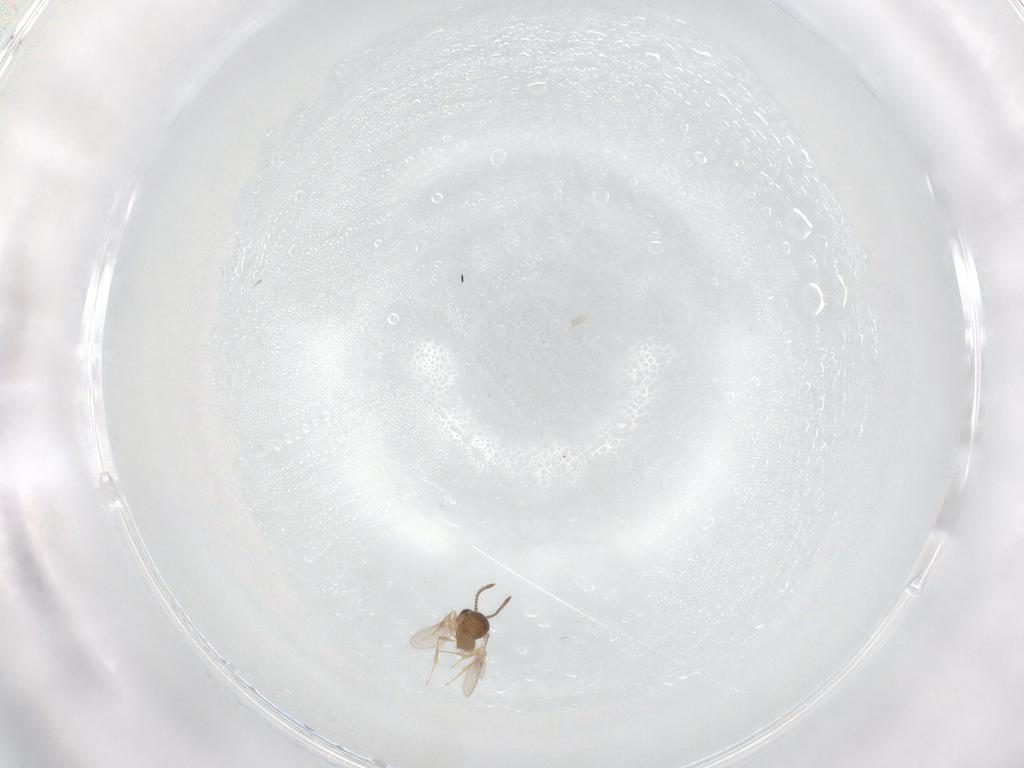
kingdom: Animalia
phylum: Arthropoda
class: Insecta
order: Hymenoptera
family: Scelionidae
